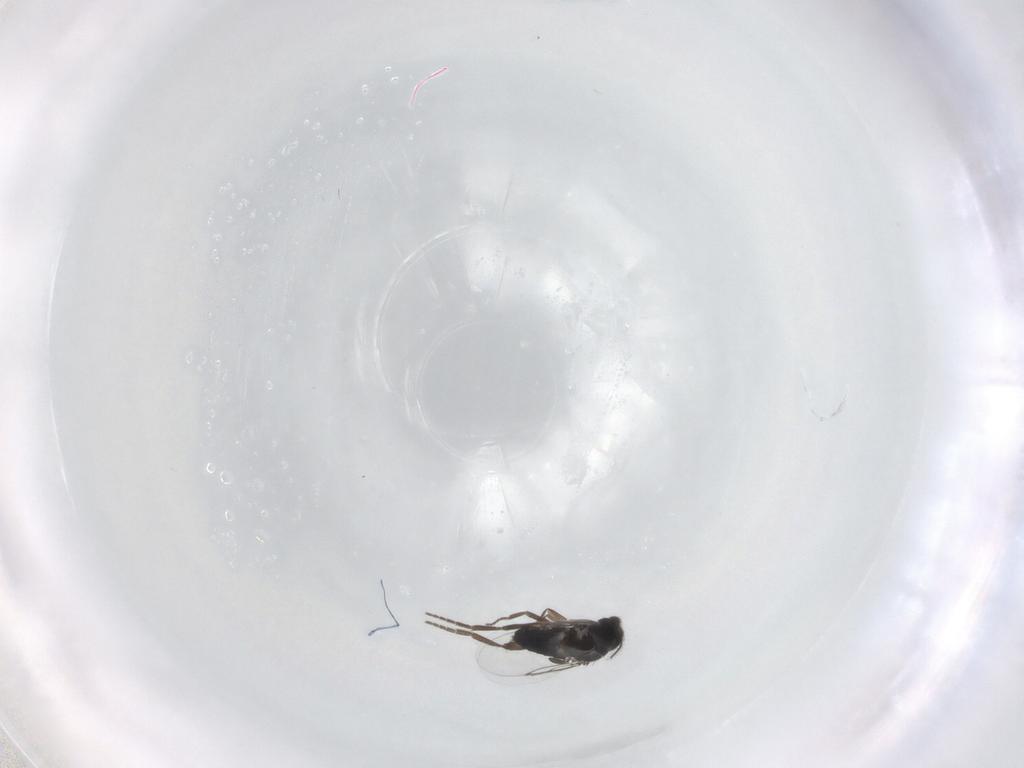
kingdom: Animalia
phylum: Arthropoda
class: Insecta
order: Diptera
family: Phoridae
